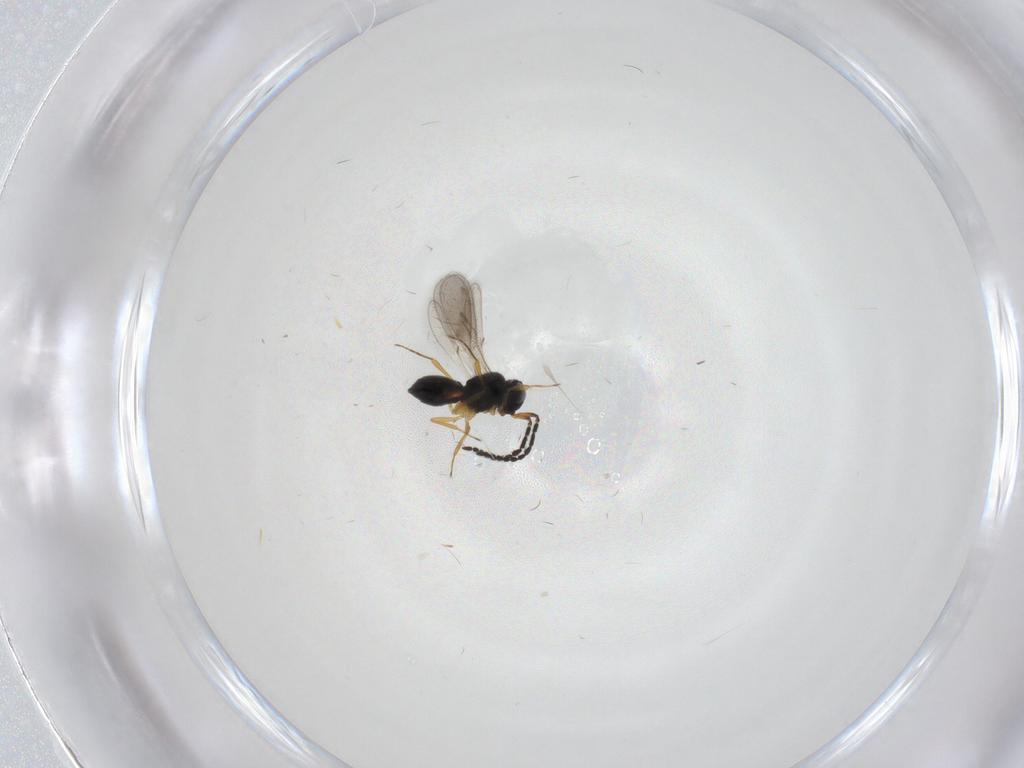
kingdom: Animalia
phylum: Arthropoda
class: Insecta
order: Hymenoptera
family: Scelionidae
